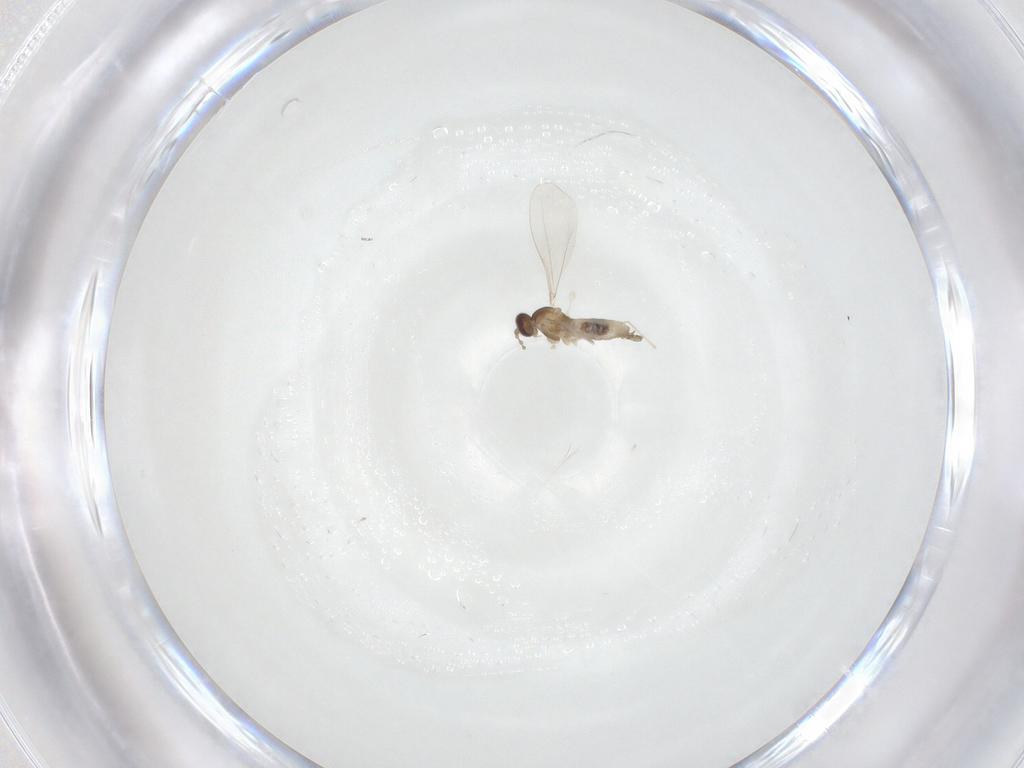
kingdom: Animalia
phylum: Arthropoda
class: Insecta
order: Diptera
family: Cecidomyiidae
